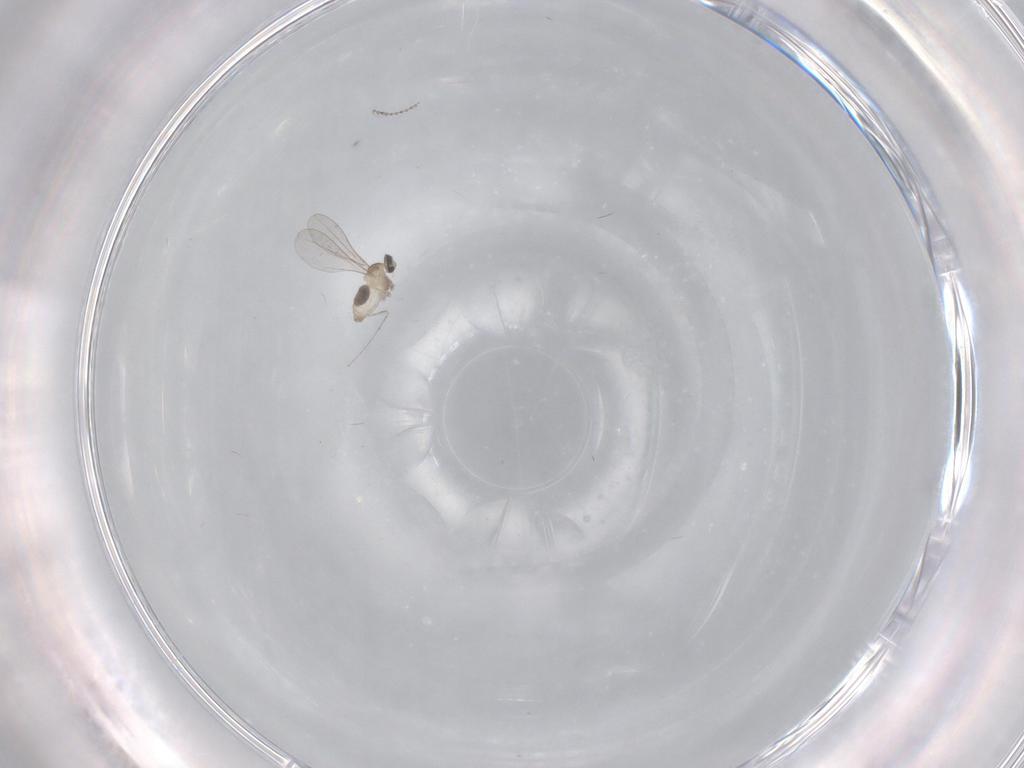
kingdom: Animalia
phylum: Arthropoda
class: Insecta
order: Diptera
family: Cecidomyiidae
